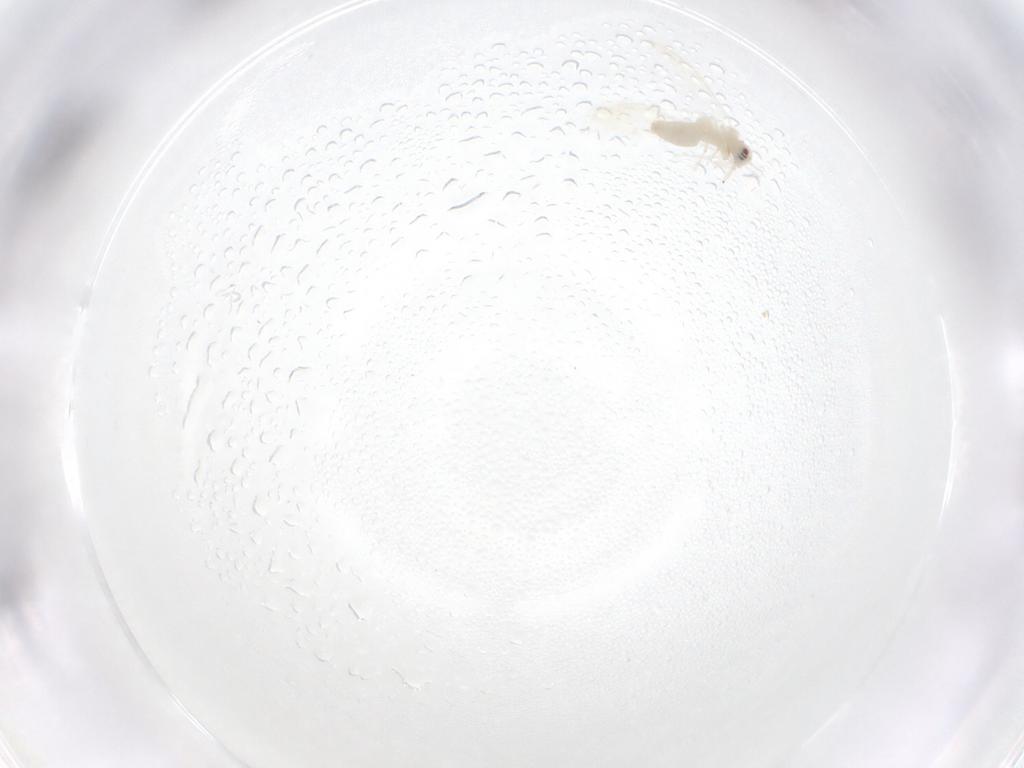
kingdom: Animalia
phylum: Arthropoda
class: Insecta
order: Hemiptera
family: Aleyrodidae
